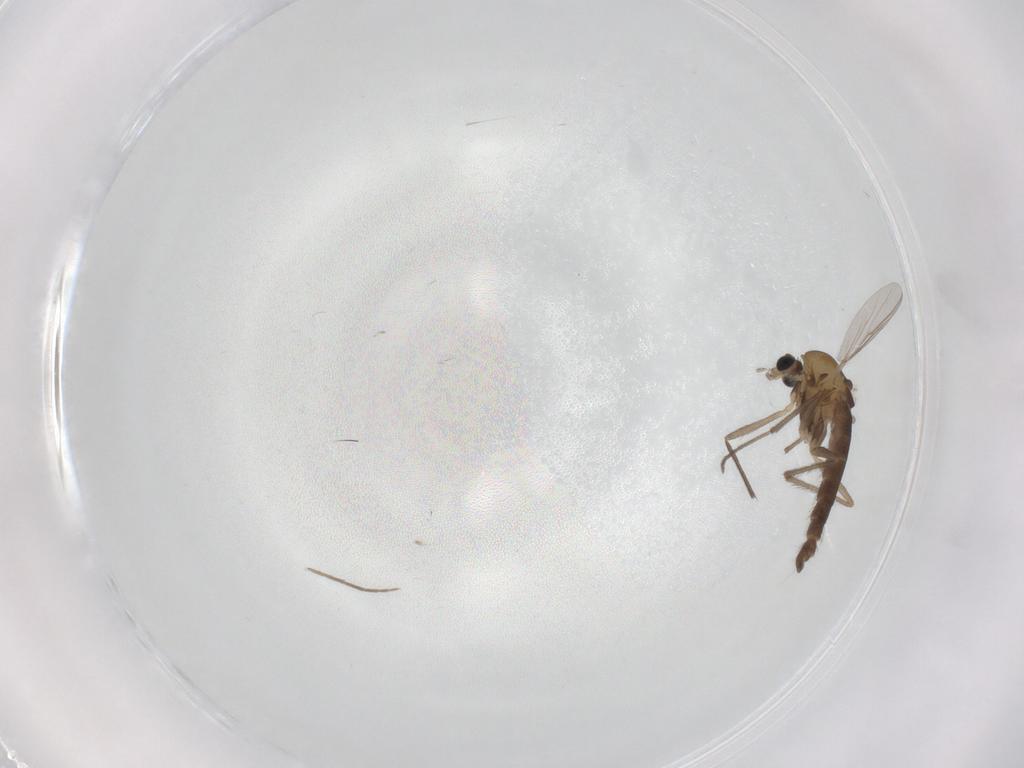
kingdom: Animalia
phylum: Arthropoda
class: Insecta
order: Diptera
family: Chironomidae
